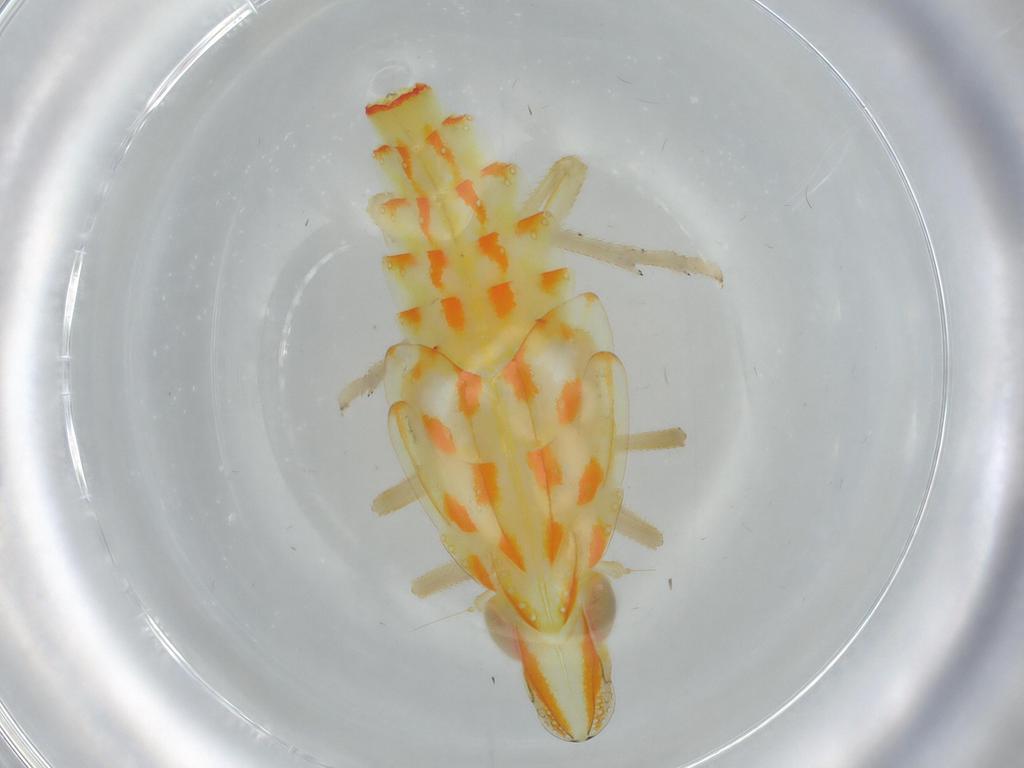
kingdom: Animalia
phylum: Arthropoda
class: Insecta
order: Hemiptera
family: Tropiduchidae
